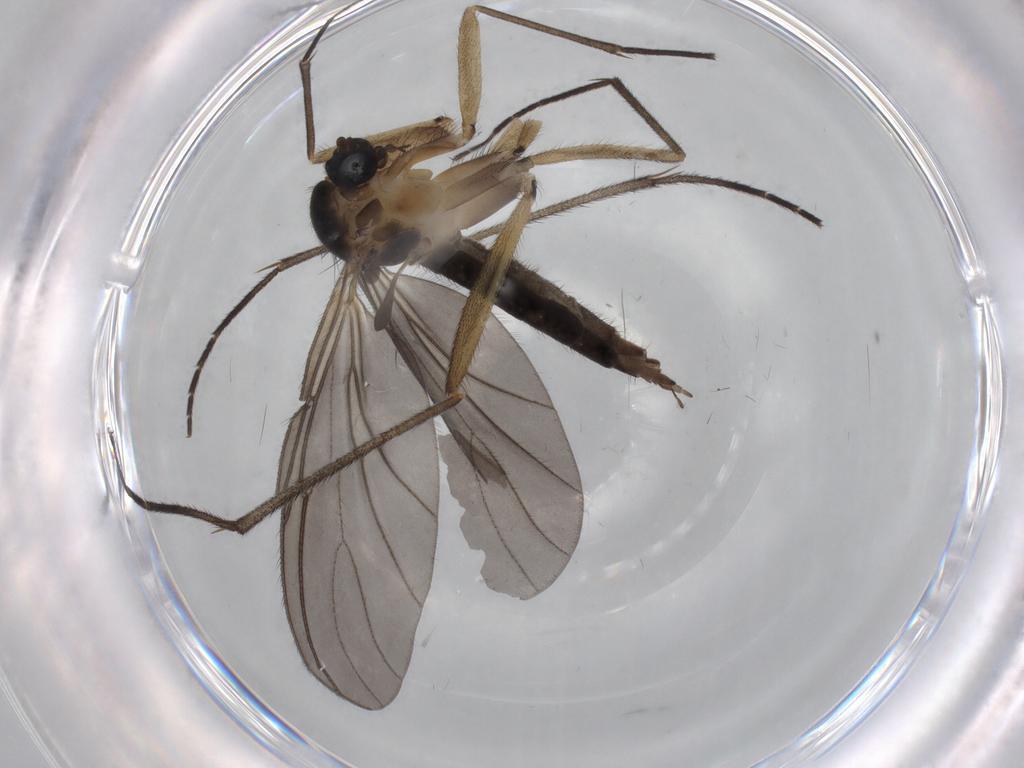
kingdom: Animalia
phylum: Arthropoda
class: Insecta
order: Diptera
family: Sciaridae
